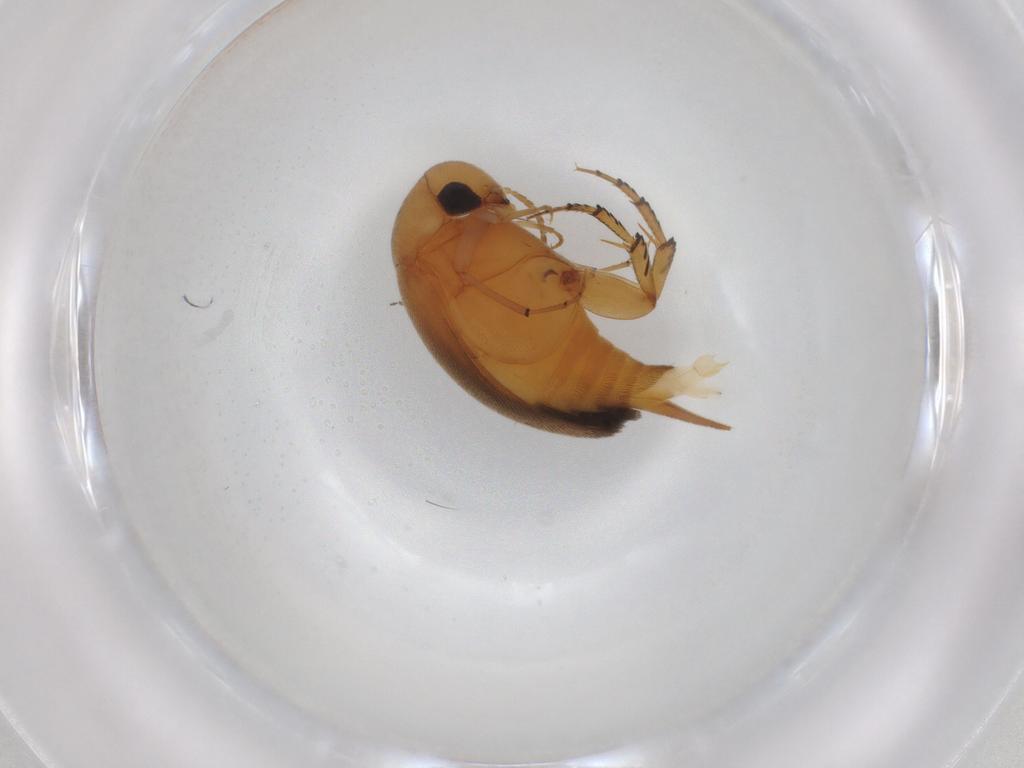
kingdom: Animalia
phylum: Arthropoda
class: Insecta
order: Coleoptera
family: Mordellidae
